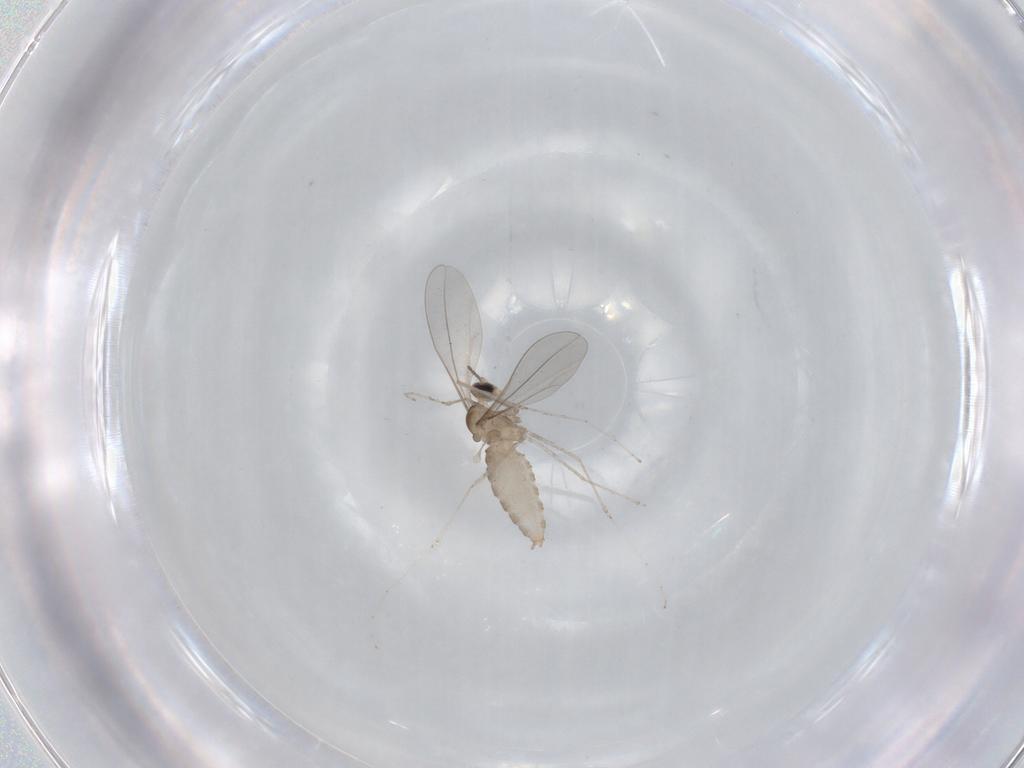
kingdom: Animalia
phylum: Arthropoda
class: Insecta
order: Diptera
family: Cecidomyiidae
